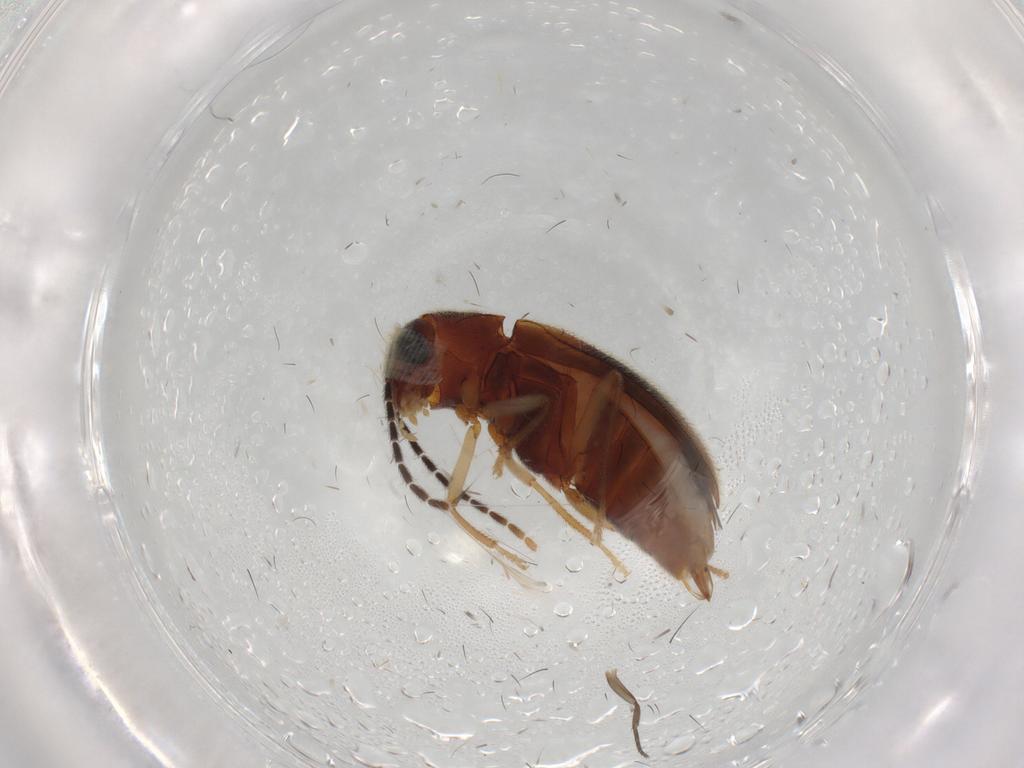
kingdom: Animalia
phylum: Arthropoda
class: Insecta
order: Coleoptera
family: Ptilodactylidae
